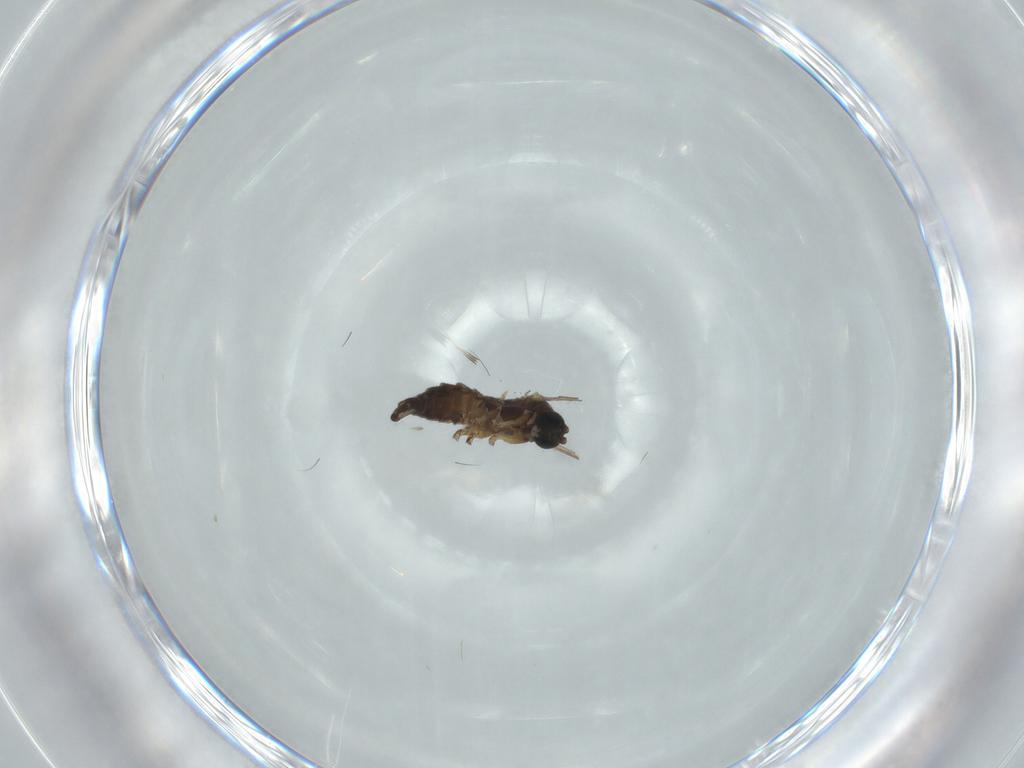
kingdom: Animalia
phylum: Arthropoda
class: Insecta
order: Diptera
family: Sciaridae
